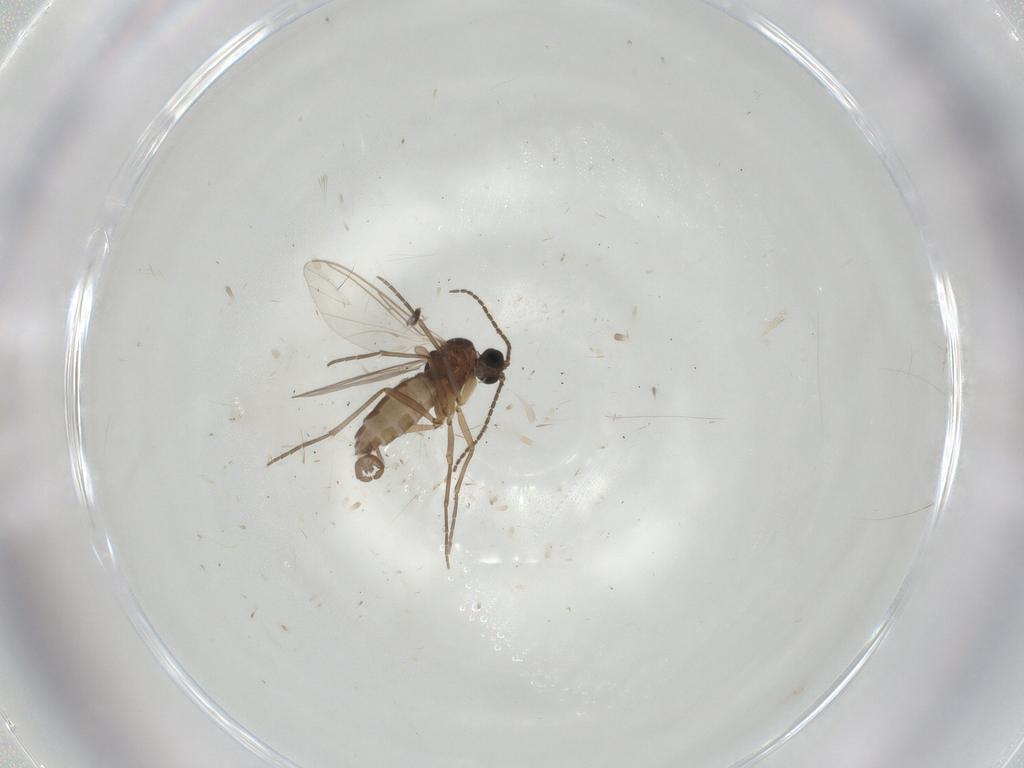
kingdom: Animalia
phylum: Arthropoda
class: Insecta
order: Diptera
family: Sciaridae
